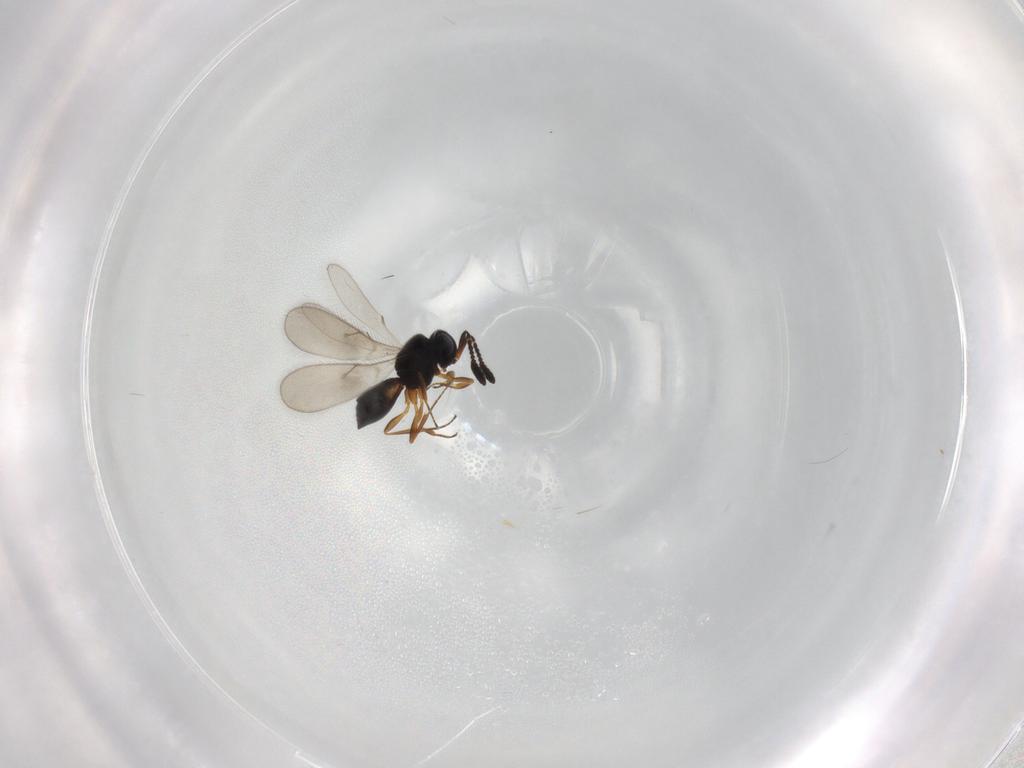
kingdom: Animalia
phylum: Arthropoda
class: Insecta
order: Hymenoptera
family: Scelionidae
